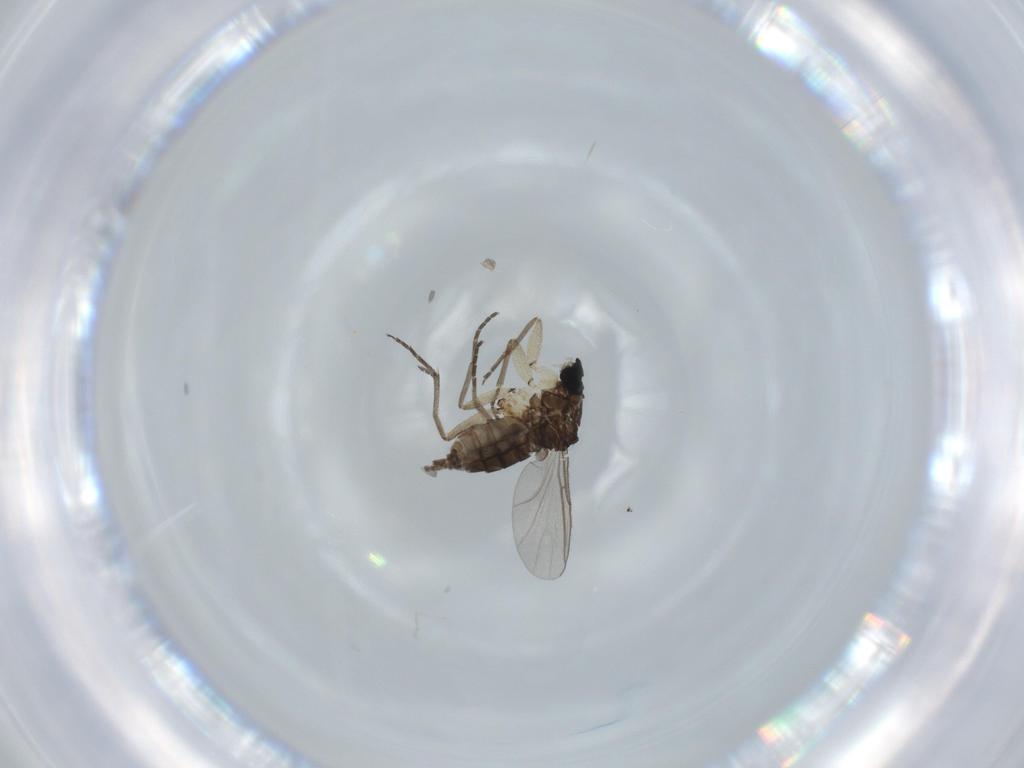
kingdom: Animalia
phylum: Arthropoda
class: Insecta
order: Diptera
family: Sciaridae
